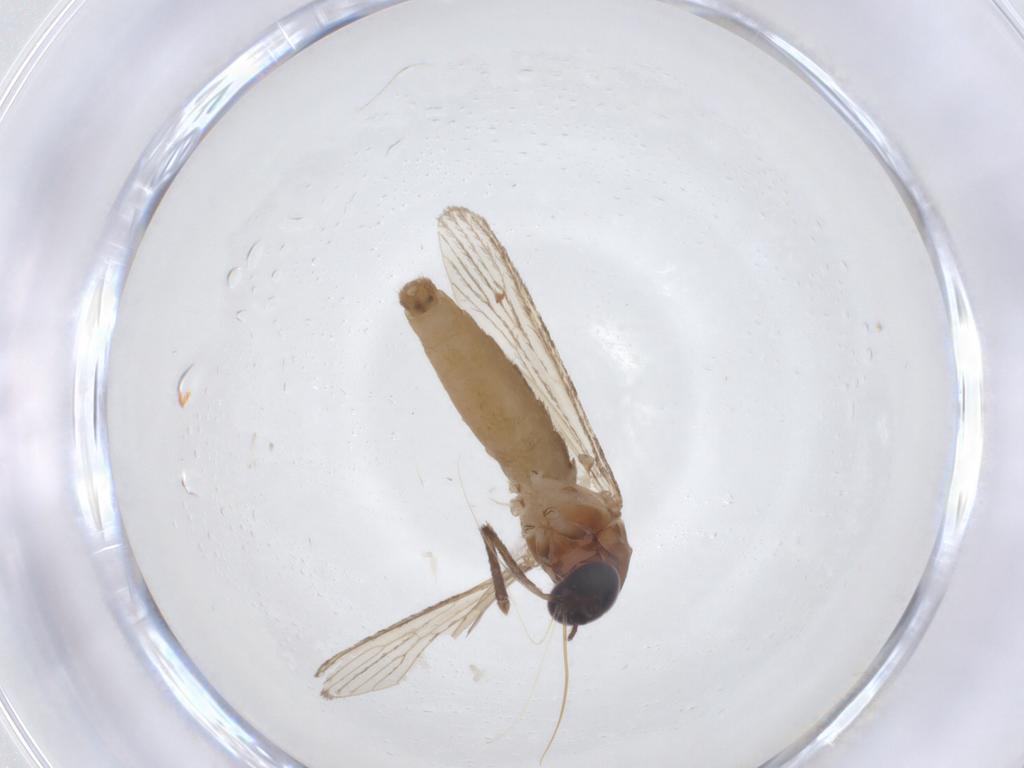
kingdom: Animalia
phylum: Arthropoda
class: Insecta
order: Diptera
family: Culicidae
